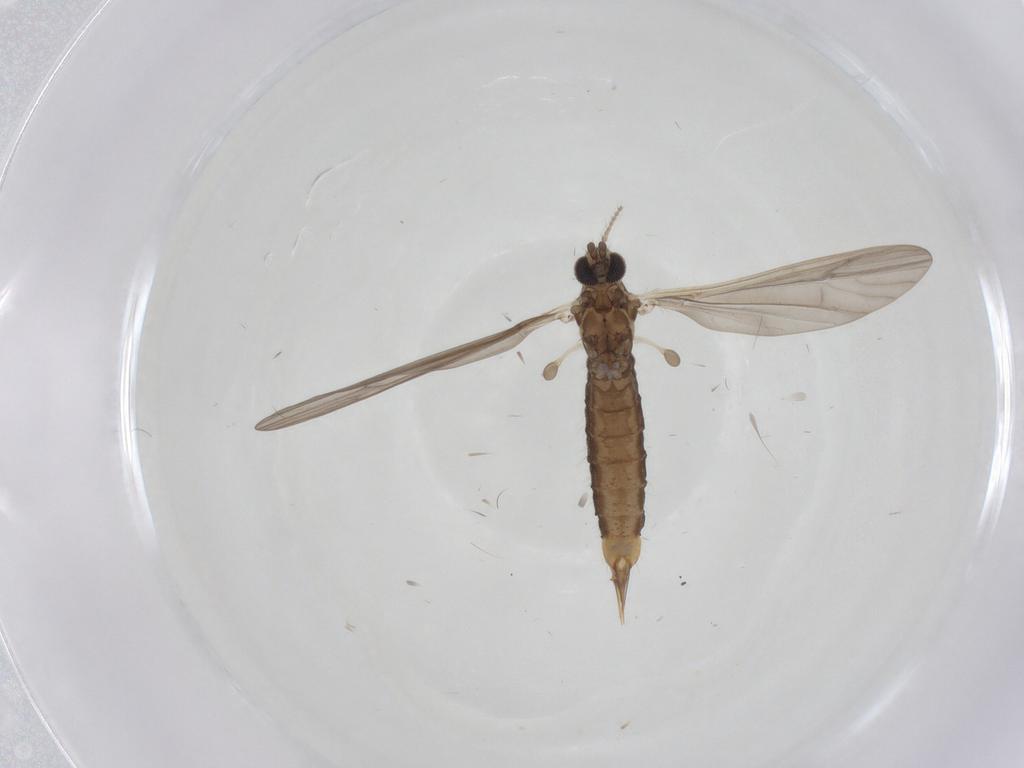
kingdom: Animalia
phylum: Arthropoda
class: Insecta
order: Diptera
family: Limoniidae
